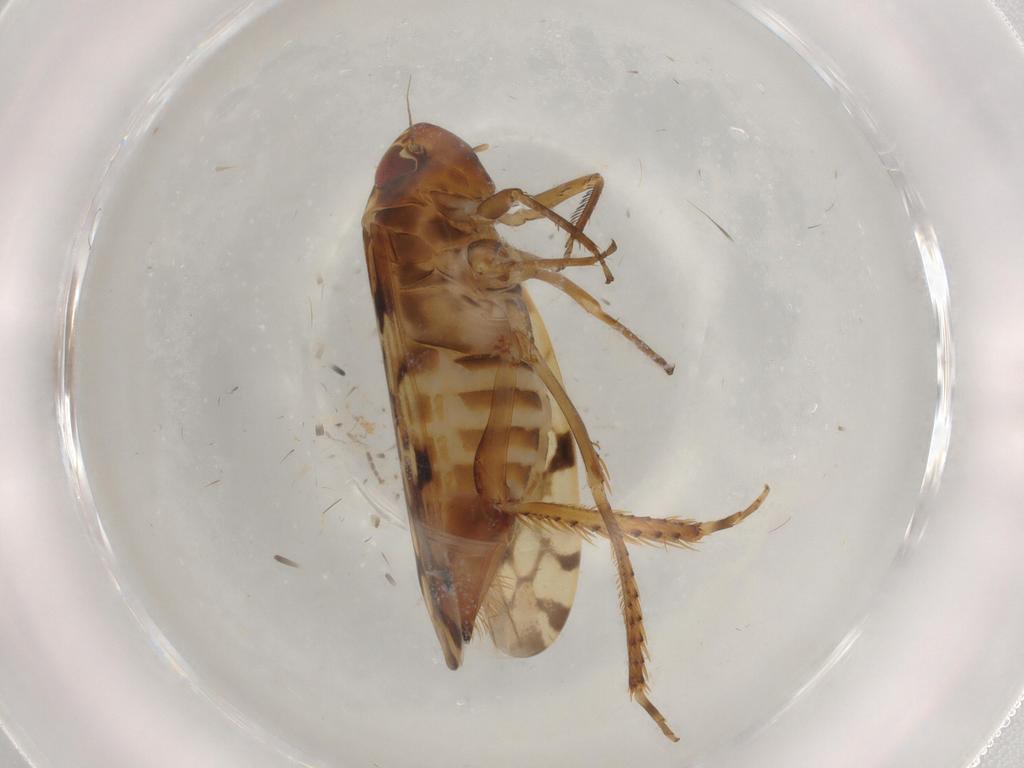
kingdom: Animalia
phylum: Arthropoda
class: Insecta
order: Hemiptera
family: Cicadellidae
